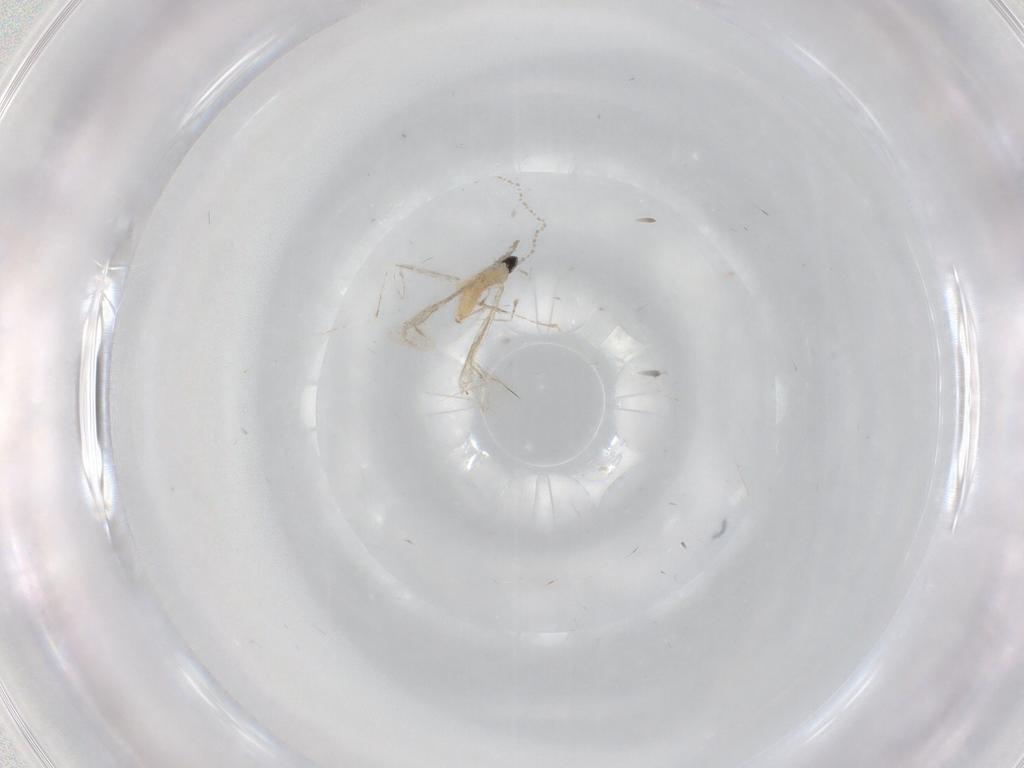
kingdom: Animalia
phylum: Arthropoda
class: Insecta
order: Diptera
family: Cecidomyiidae
